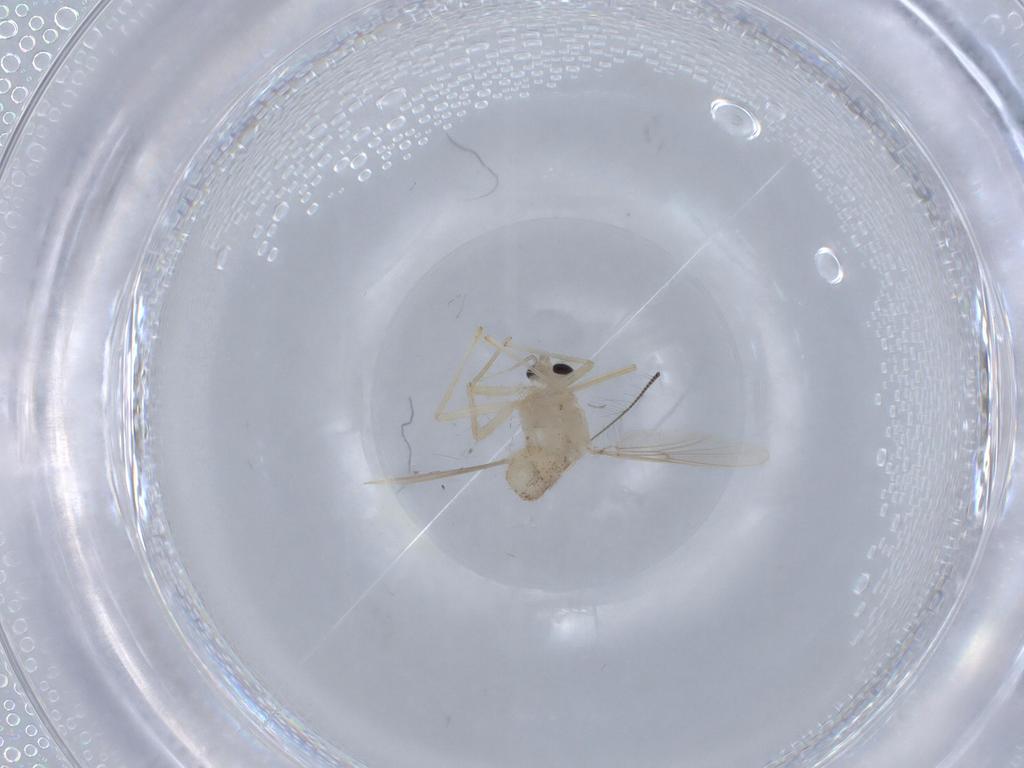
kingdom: Animalia
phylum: Arthropoda
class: Insecta
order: Diptera
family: Chironomidae
